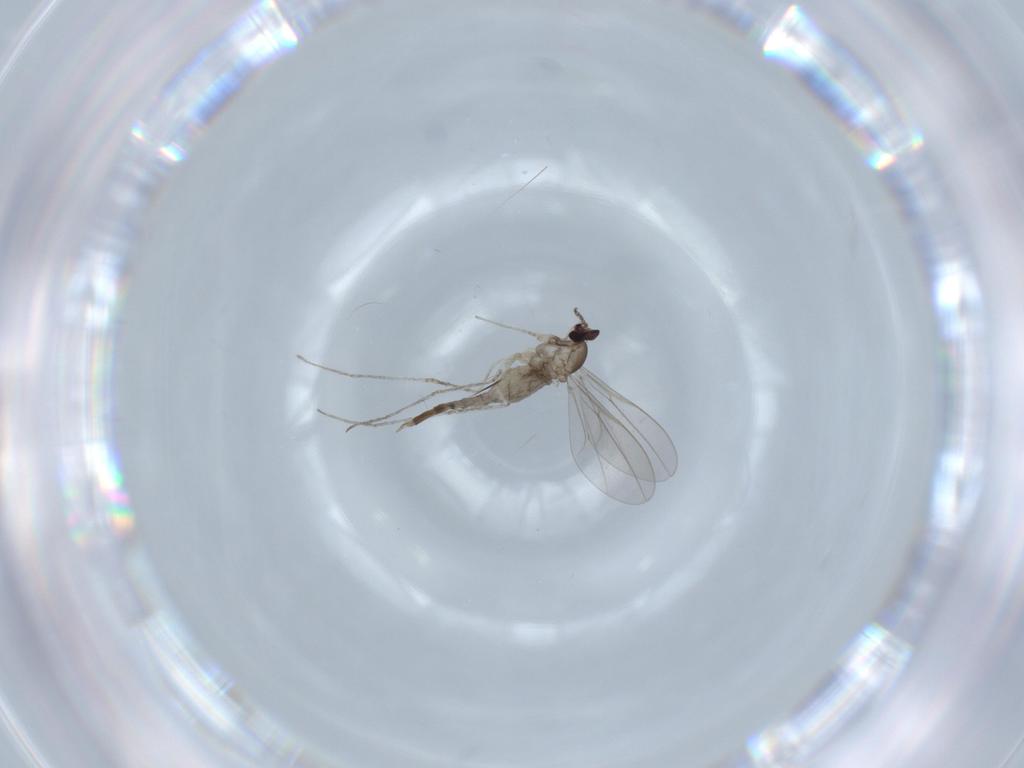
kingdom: Animalia
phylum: Arthropoda
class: Insecta
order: Diptera
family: Cecidomyiidae
